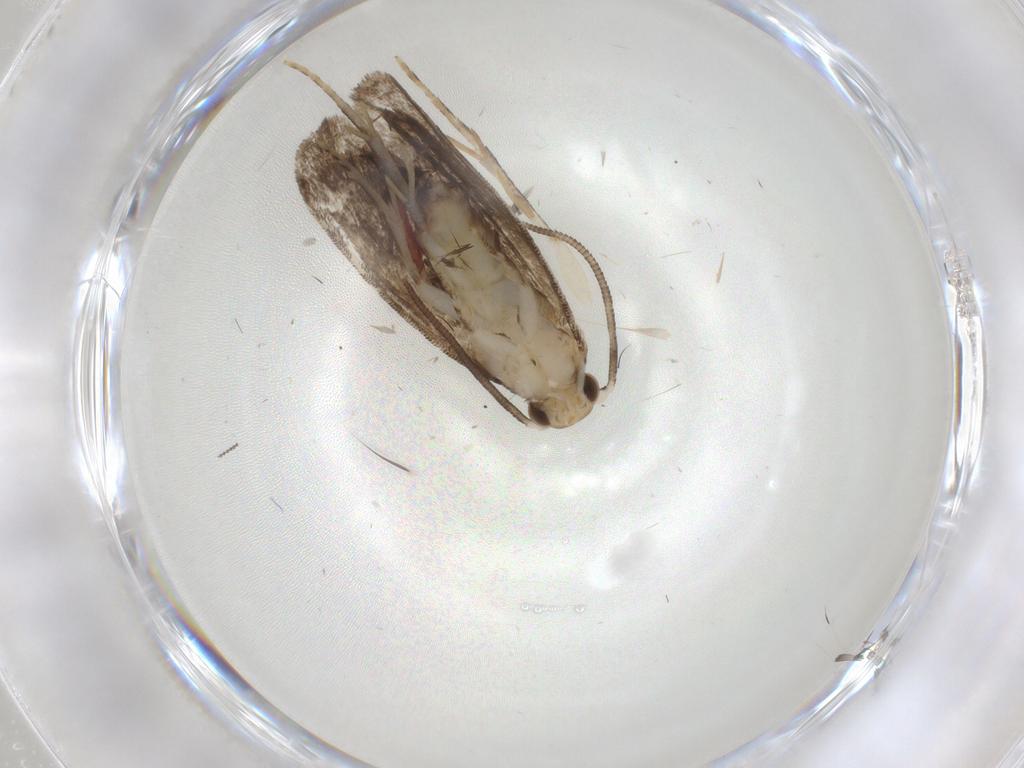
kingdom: Animalia
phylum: Arthropoda
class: Insecta
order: Lepidoptera
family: Dryadaulidae
